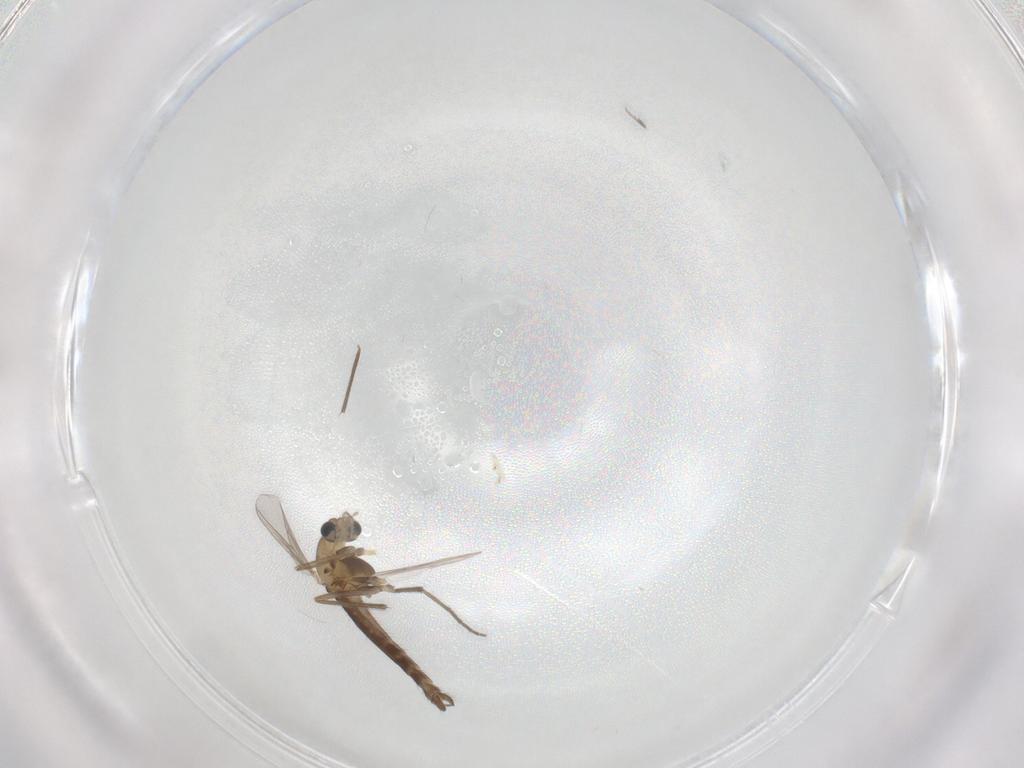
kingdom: Animalia
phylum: Arthropoda
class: Insecta
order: Diptera
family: Chironomidae
